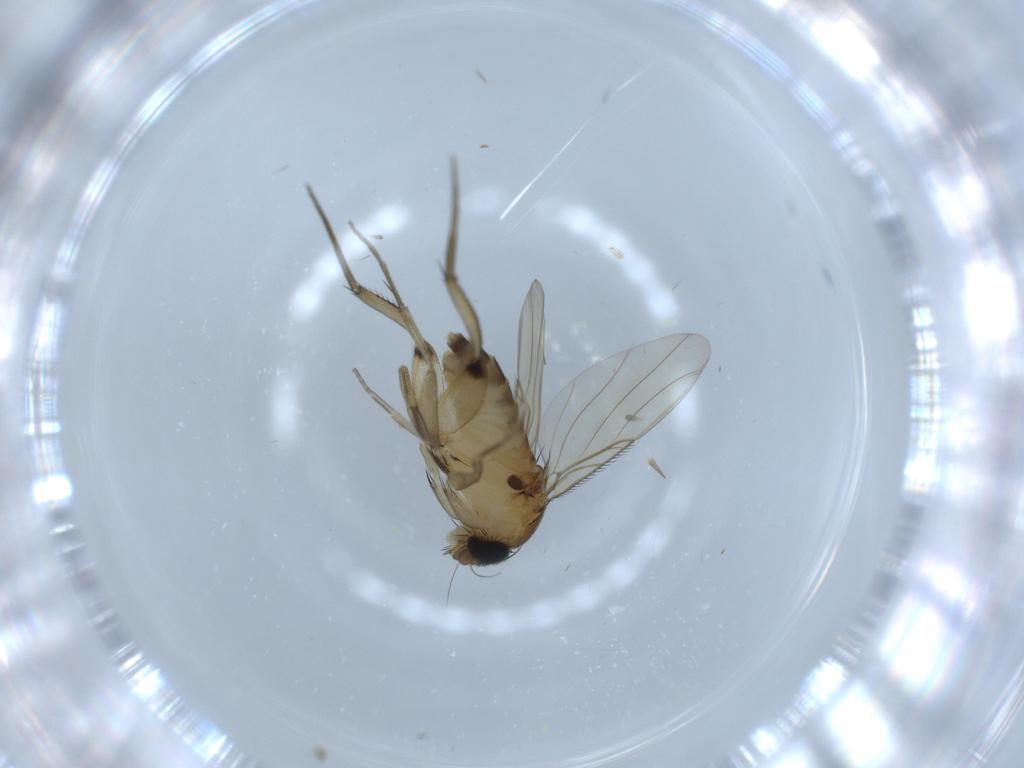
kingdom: Animalia
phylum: Arthropoda
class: Insecta
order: Diptera
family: Phoridae
